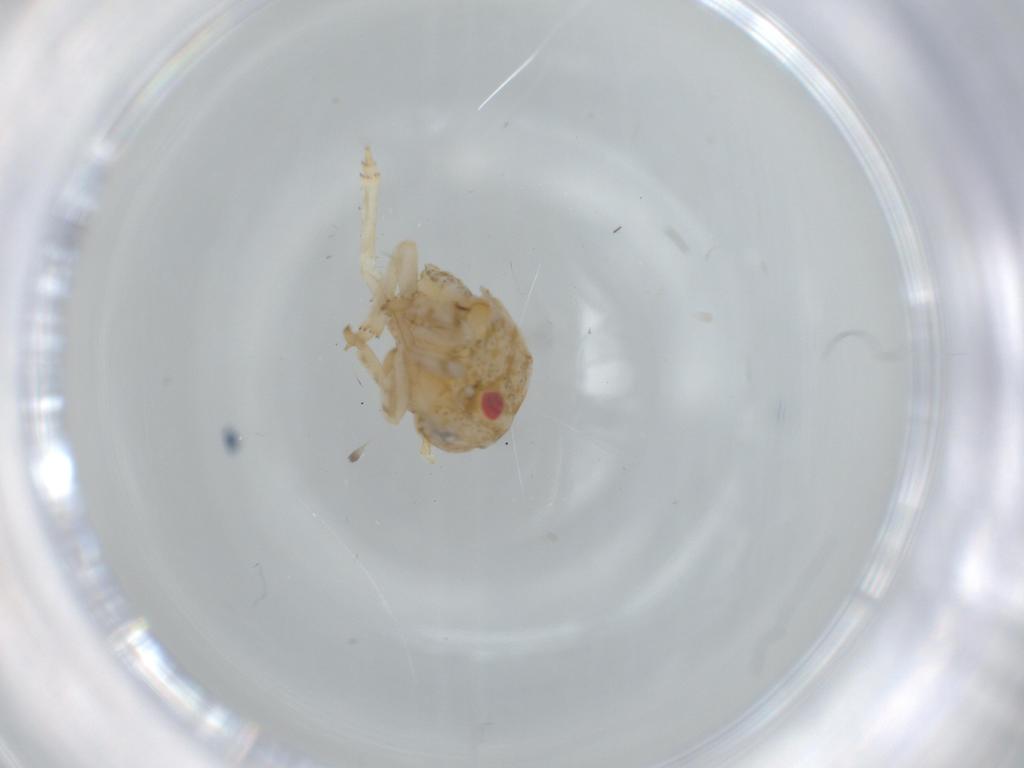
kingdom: Animalia
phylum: Arthropoda
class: Insecta
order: Hemiptera
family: Acanaloniidae
